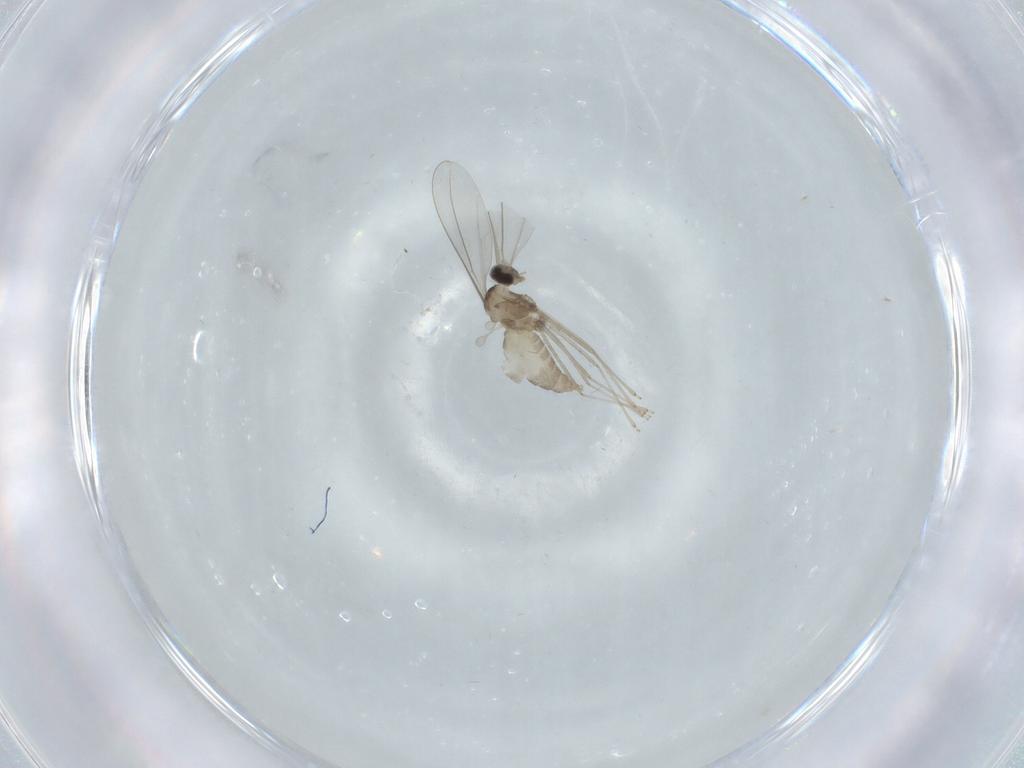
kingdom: Animalia
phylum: Arthropoda
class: Insecta
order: Diptera
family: Cecidomyiidae
